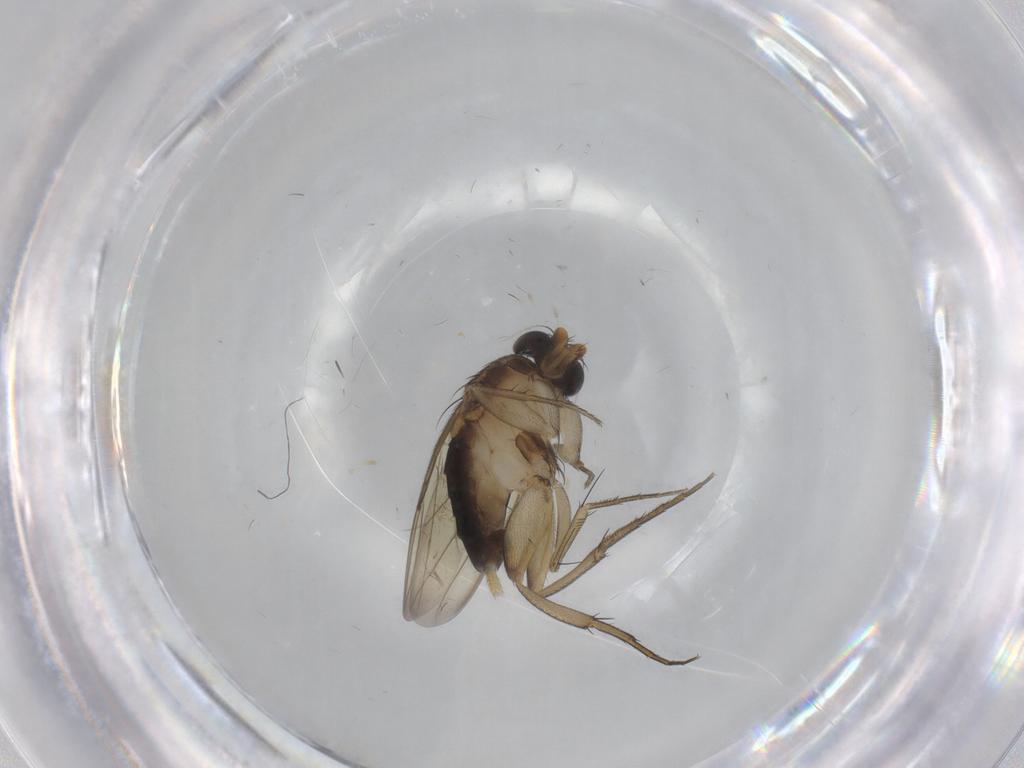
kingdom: Animalia
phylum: Arthropoda
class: Insecta
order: Diptera
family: Phoridae
